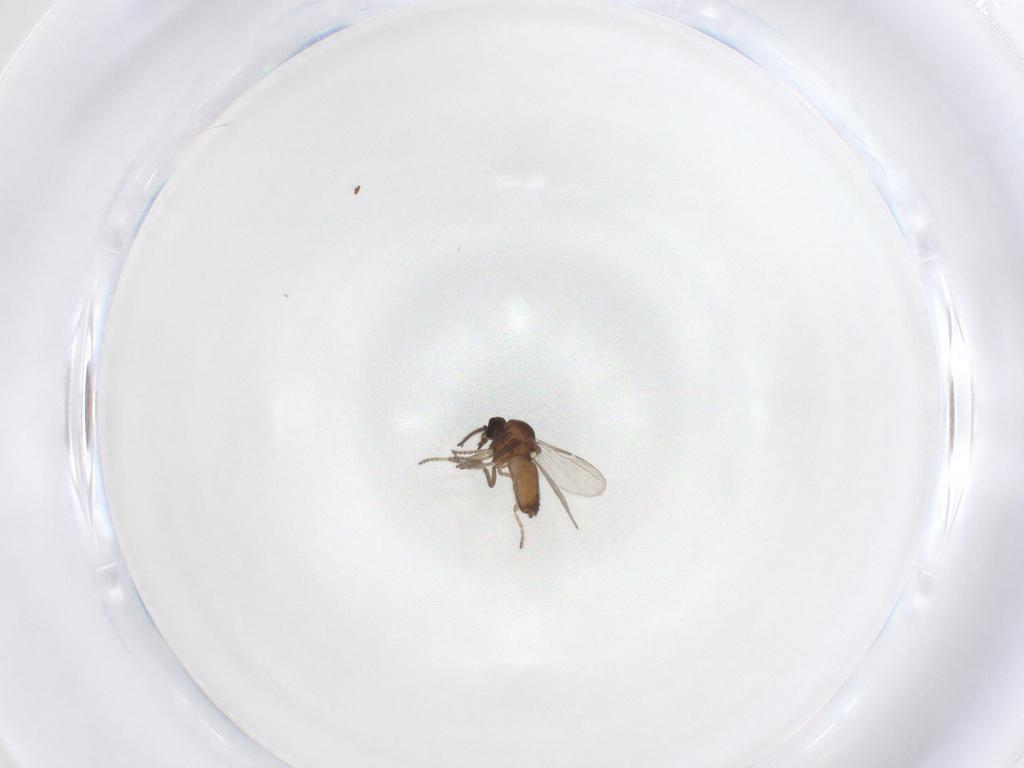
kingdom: Animalia
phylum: Arthropoda
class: Insecta
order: Diptera
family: Ceratopogonidae
